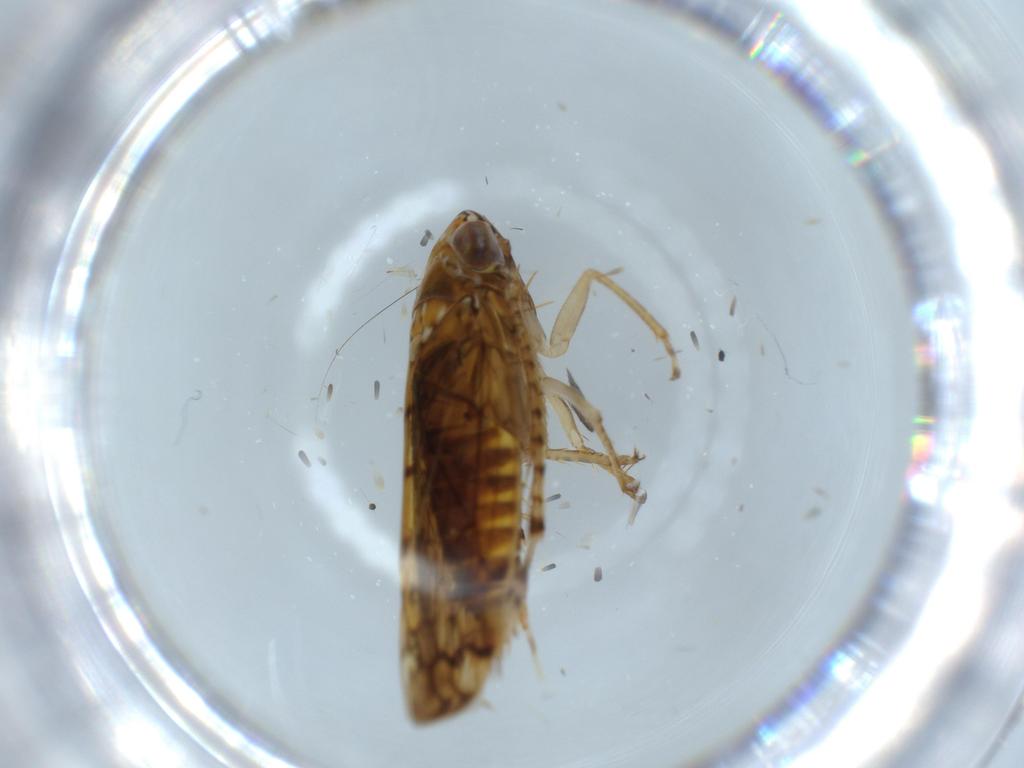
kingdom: Animalia
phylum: Arthropoda
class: Insecta
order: Hemiptera
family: Cicadellidae
